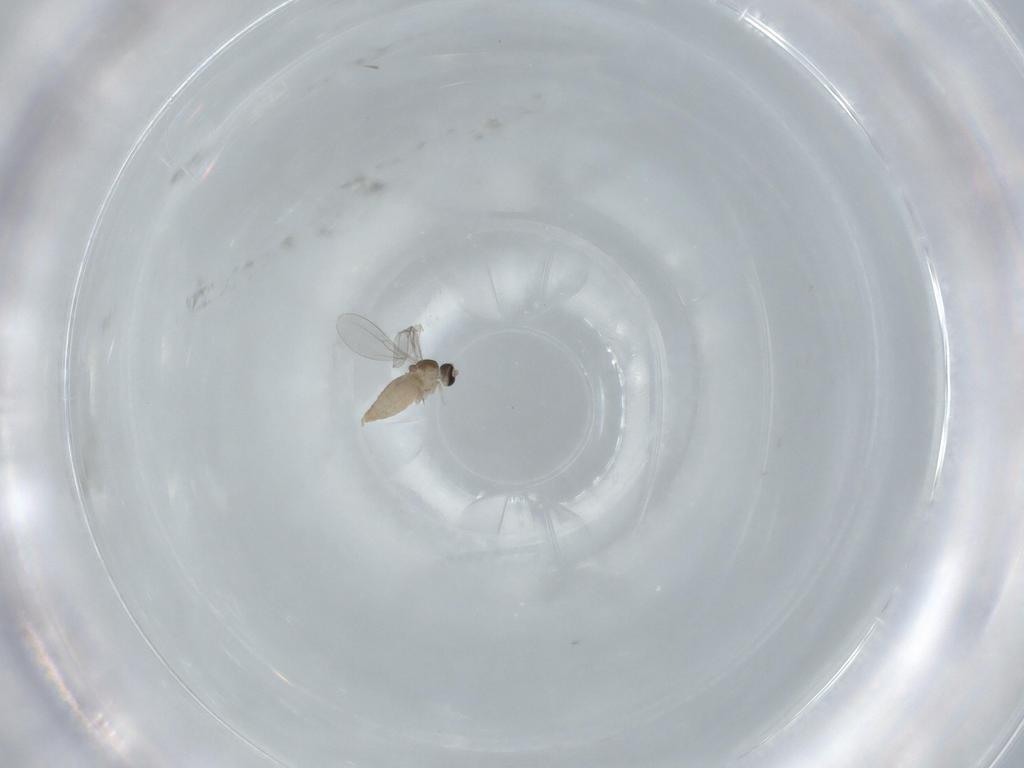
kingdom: Animalia
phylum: Arthropoda
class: Insecta
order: Diptera
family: Cecidomyiidae
